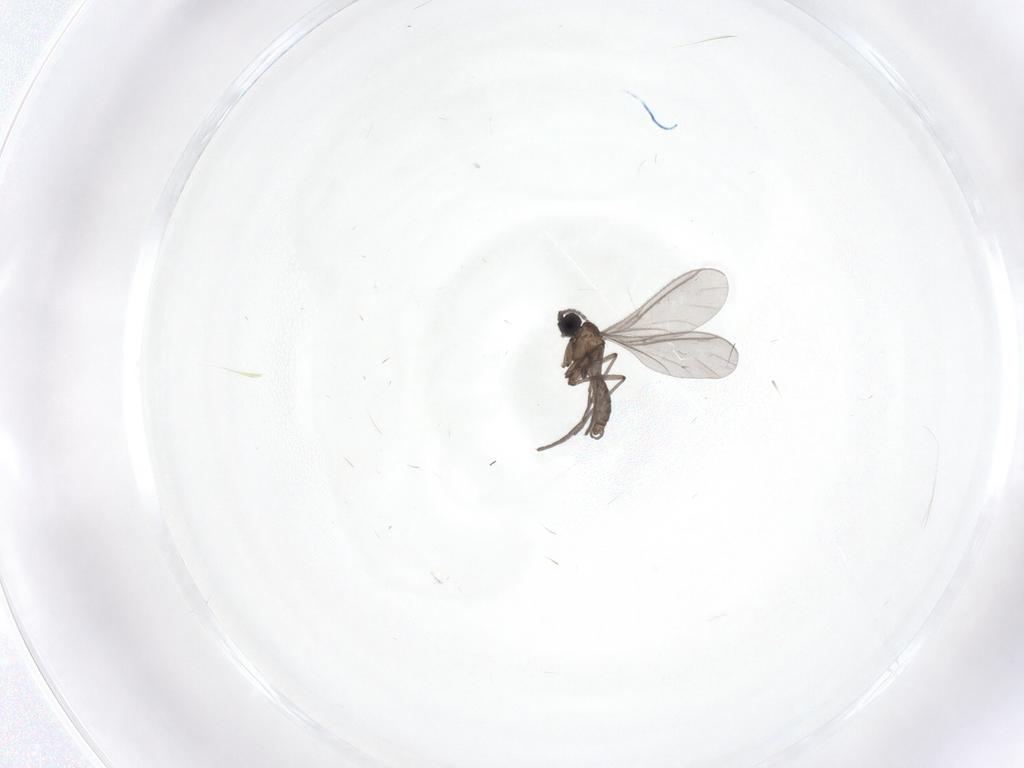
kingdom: Animalia
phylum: Arthropoda
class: Insecta
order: Diptera
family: Sciaridae
